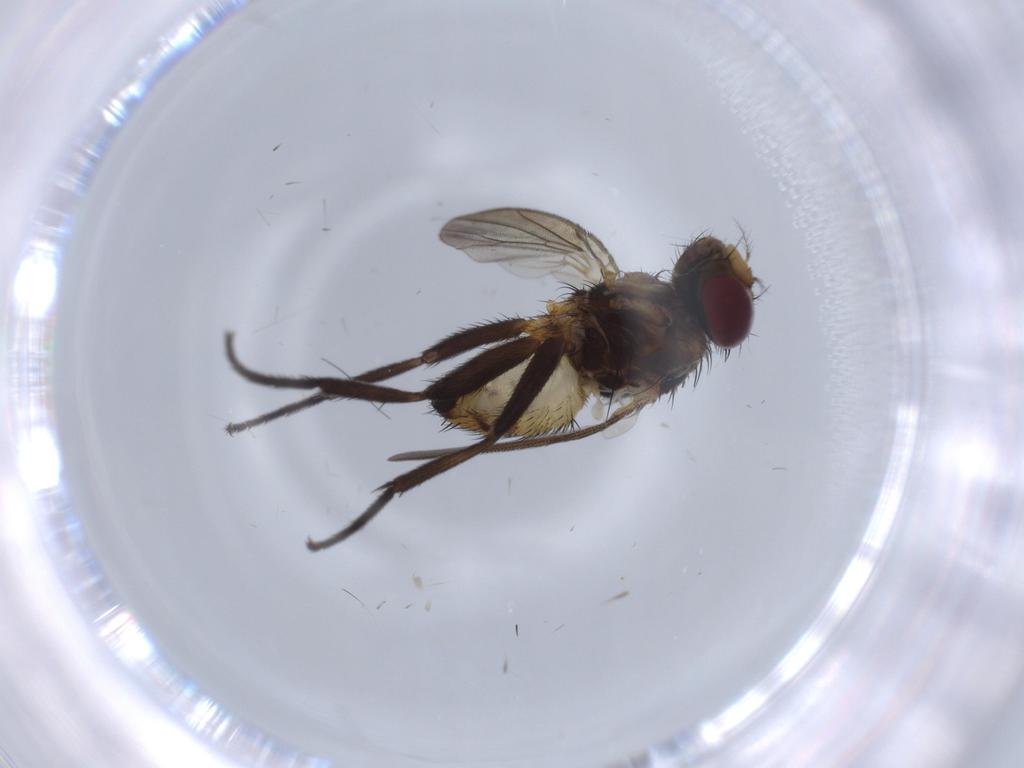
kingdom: Animalia
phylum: Arthropoda
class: Insecta
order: Diptera
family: Anthomyiidae
